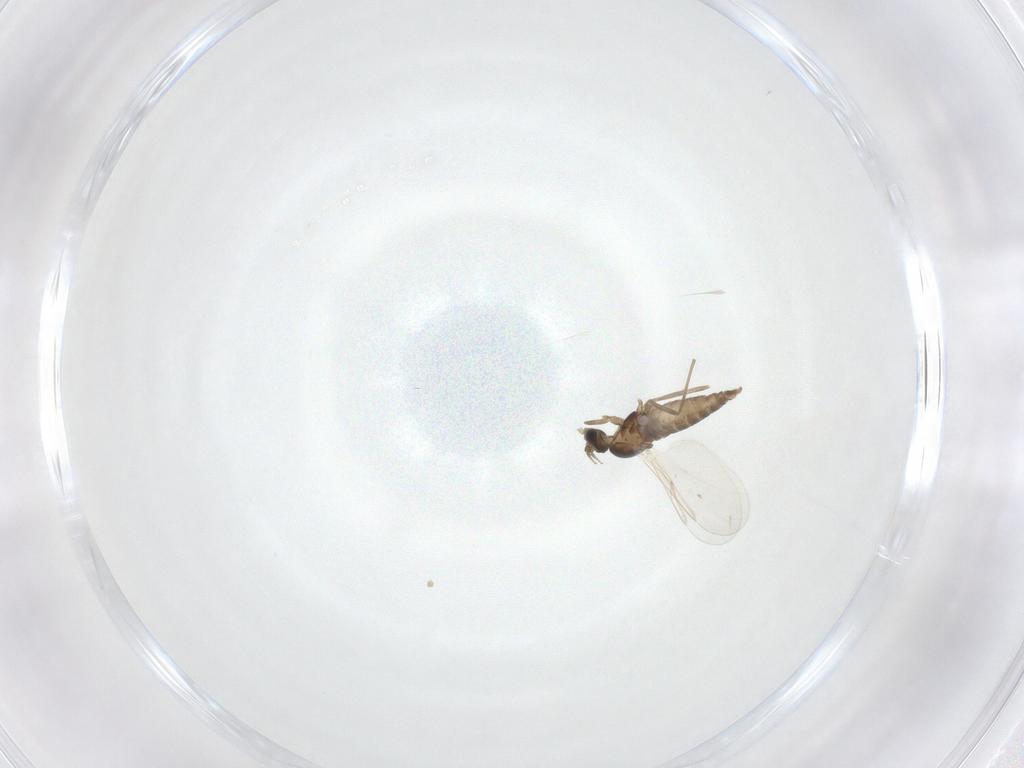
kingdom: Animalia
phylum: Arthropoda
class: Insecta
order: Diptera
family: Cecidomyiidae
